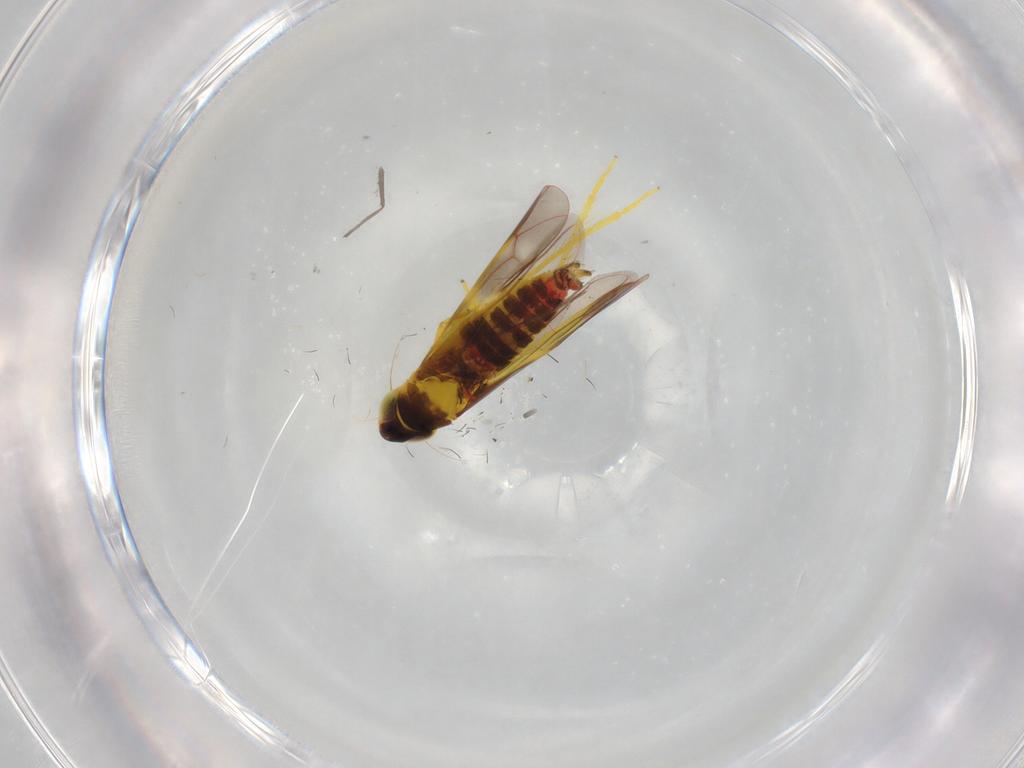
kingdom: Animalia
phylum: Arthropoda
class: Insecta
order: Hemiptera
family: Cicadellidae
